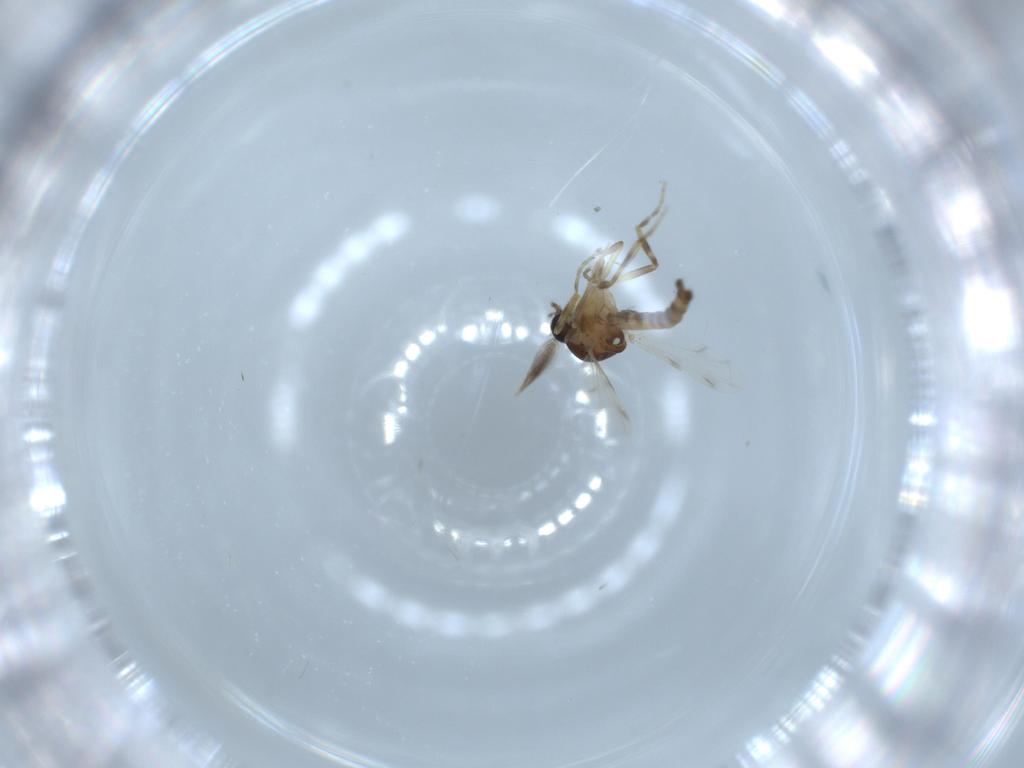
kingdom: Animalia
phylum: Arthropoda
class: Insecta
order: Diptera
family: Ceratopogonidae
